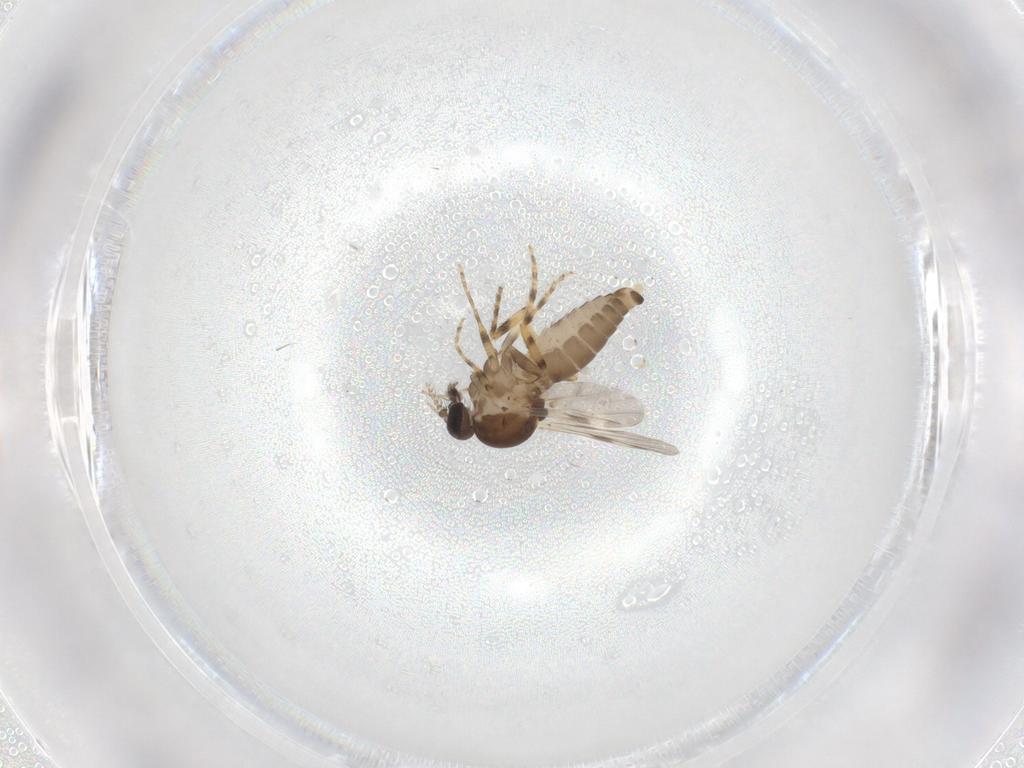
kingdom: Animalia
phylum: Arthropoda
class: Insecta
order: Diptera
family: Chironomidae
